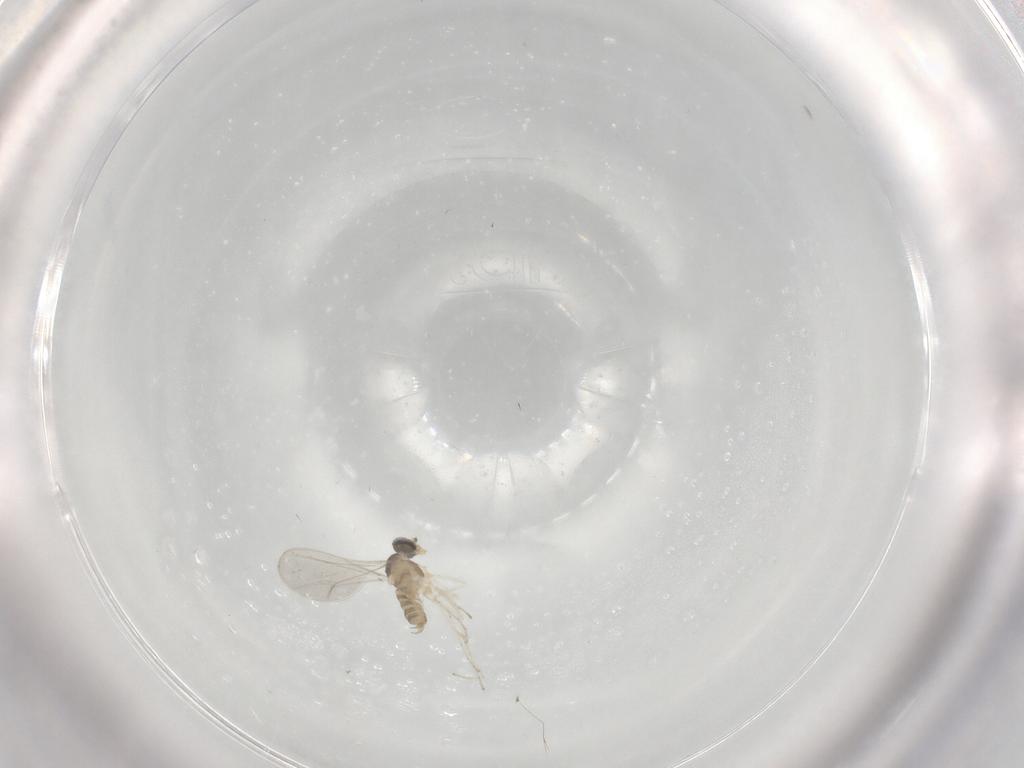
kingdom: Animalia
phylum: Arthropoda
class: Insecta
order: Diptera
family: Cecidomyiidae
